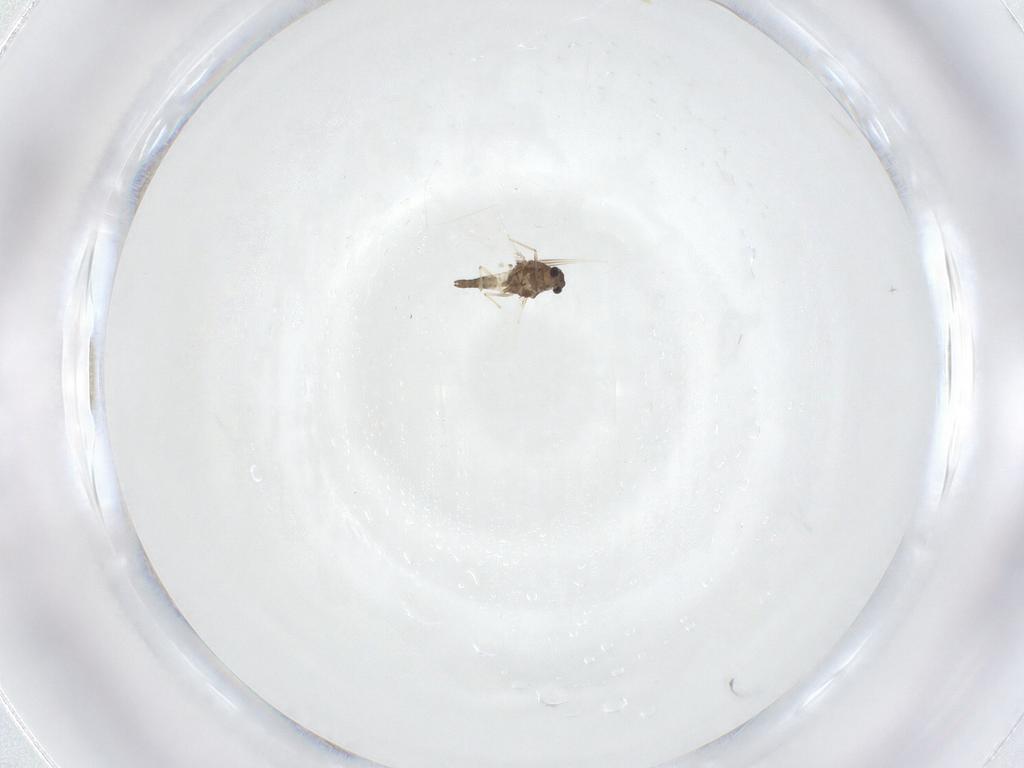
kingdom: Animalia
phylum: Arthropoda
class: Insecta
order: Diptera
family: Chironomidae
